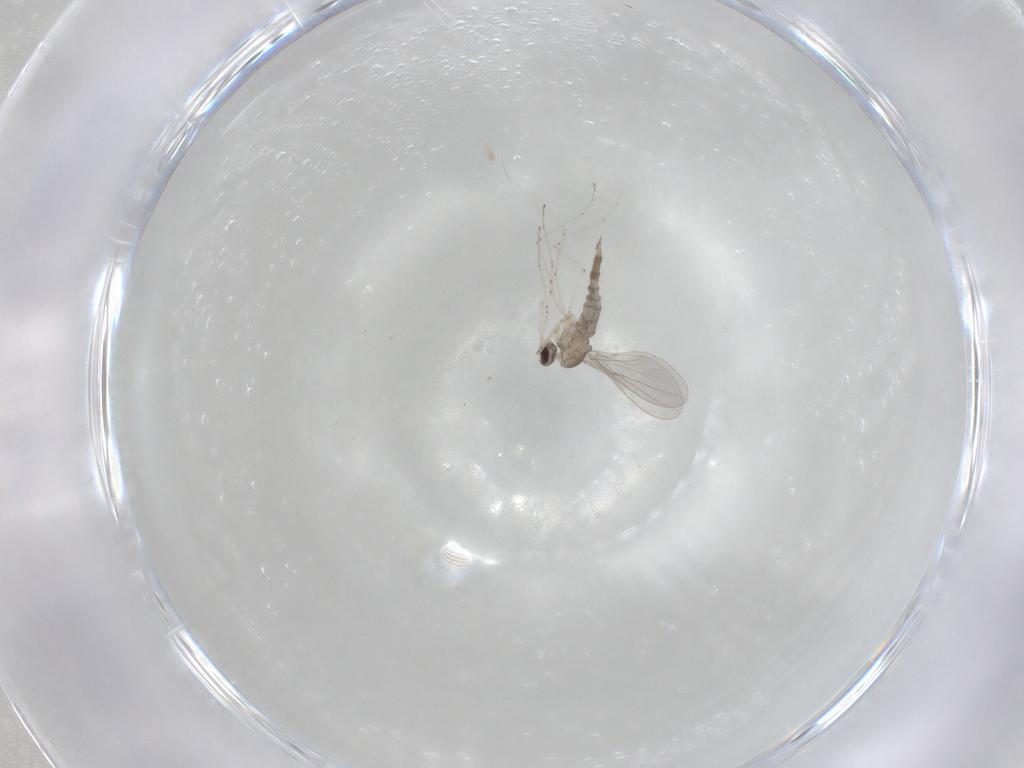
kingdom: Animalia
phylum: Arthropoda
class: Insecta
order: Diptera
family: Cecidomyiidae
